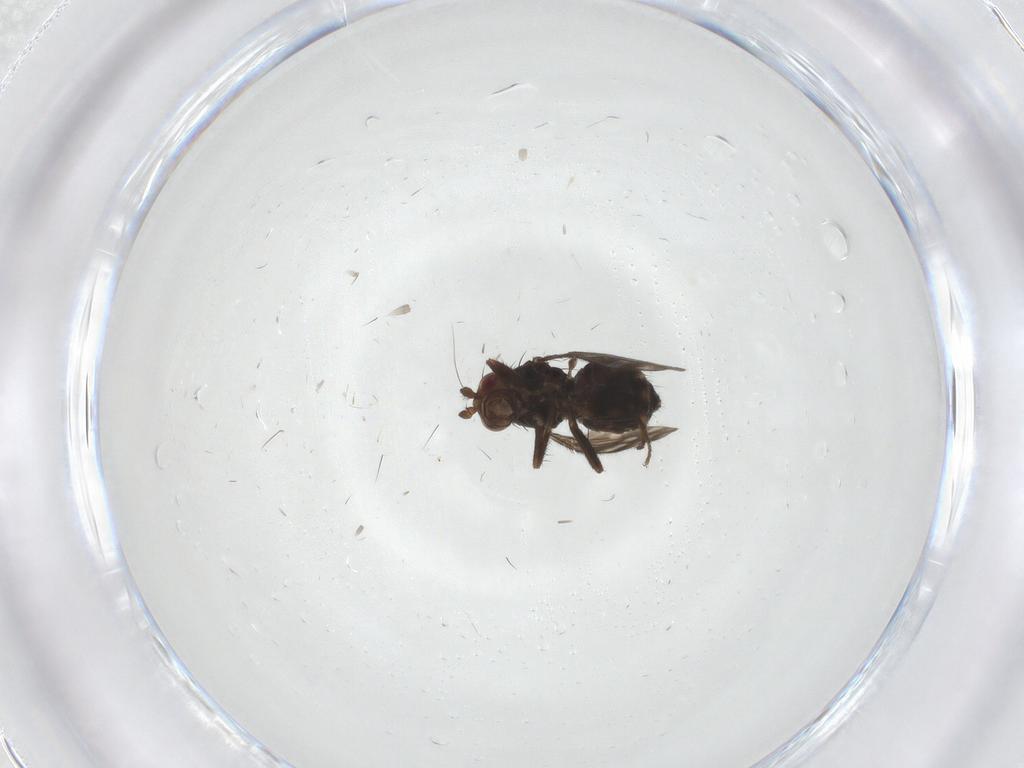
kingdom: Animalia
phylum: Arthropoda
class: Insecta
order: Diptera
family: Sphaeroceridae
